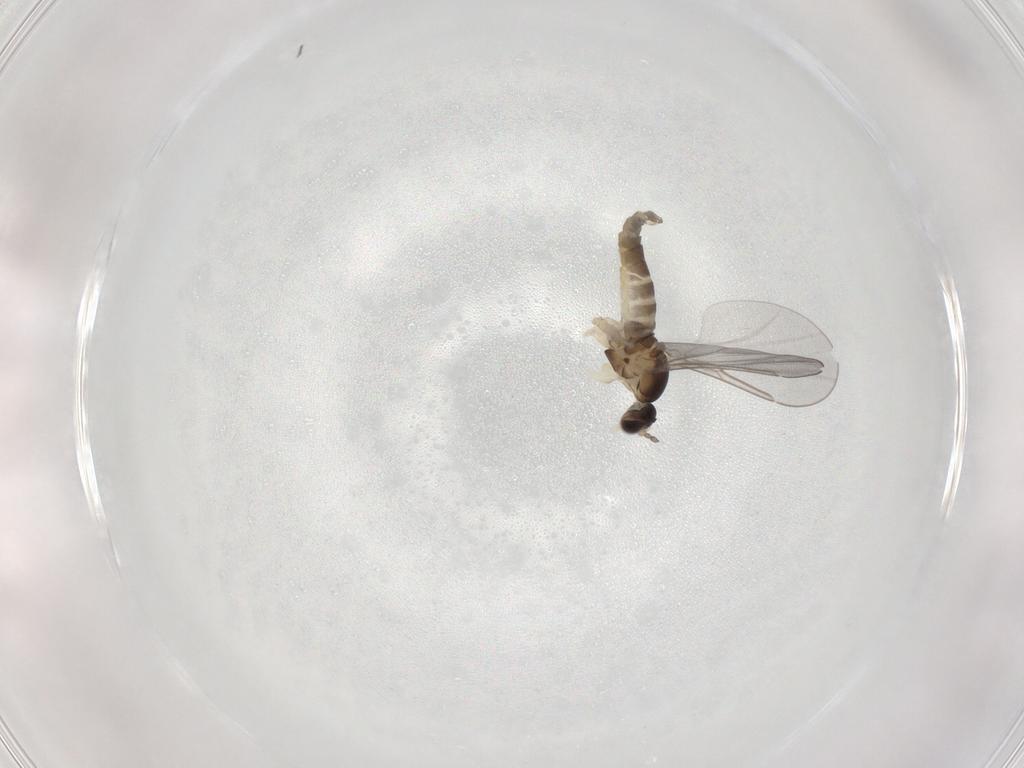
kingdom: Animalia
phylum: Arthropoda
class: Insecta
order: Diptera
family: Cecidomyiidae
